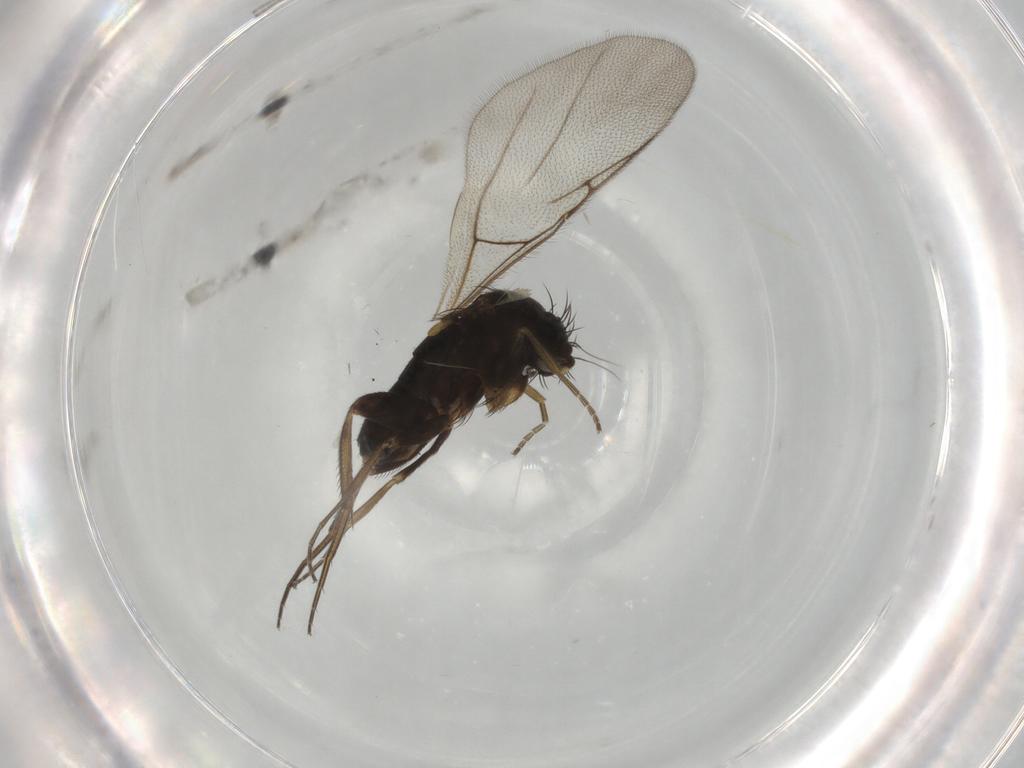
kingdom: Animalia
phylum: Arthropoda
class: Insecta
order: Diptera
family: Phoridae
